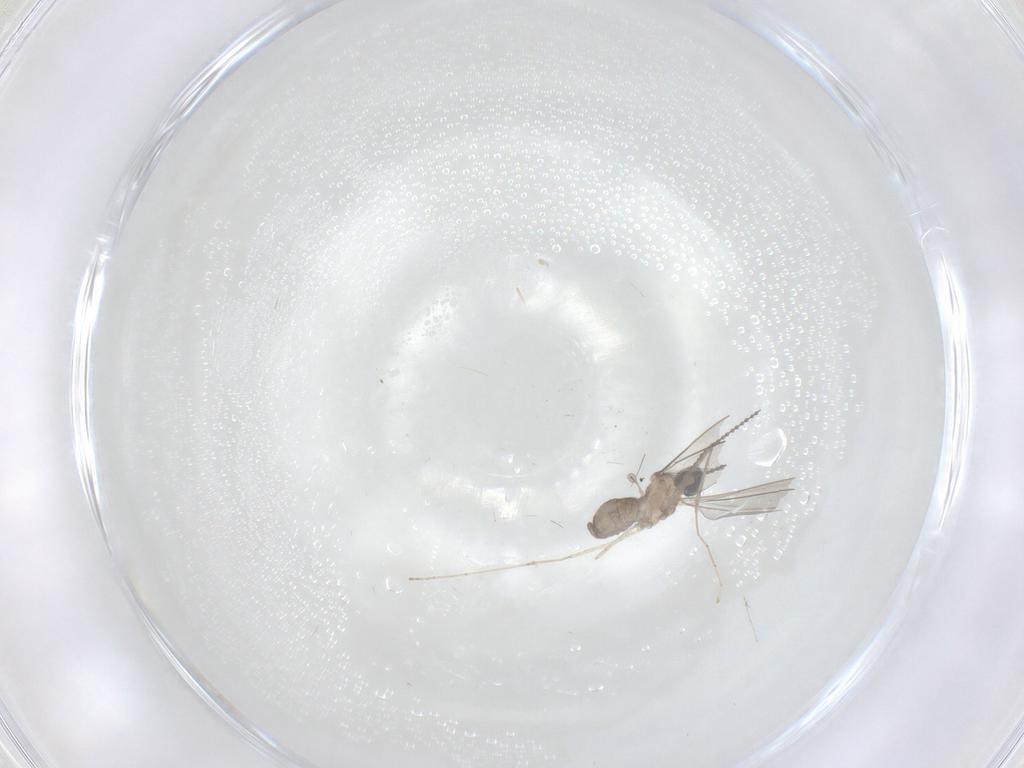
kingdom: Animalia
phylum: Arthropoda
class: Insecta
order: Diptera
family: Cecidomyiidae
